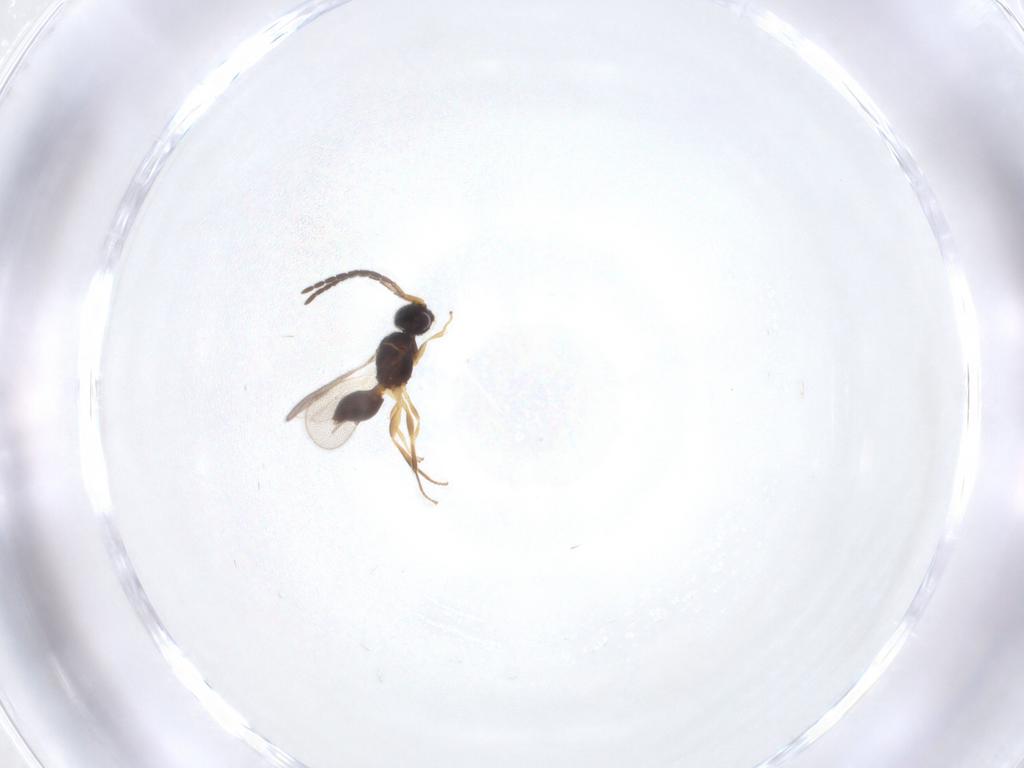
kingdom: Animalia
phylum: Arthropoda
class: Insecta
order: Hymenoptera
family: Megaspilidae
